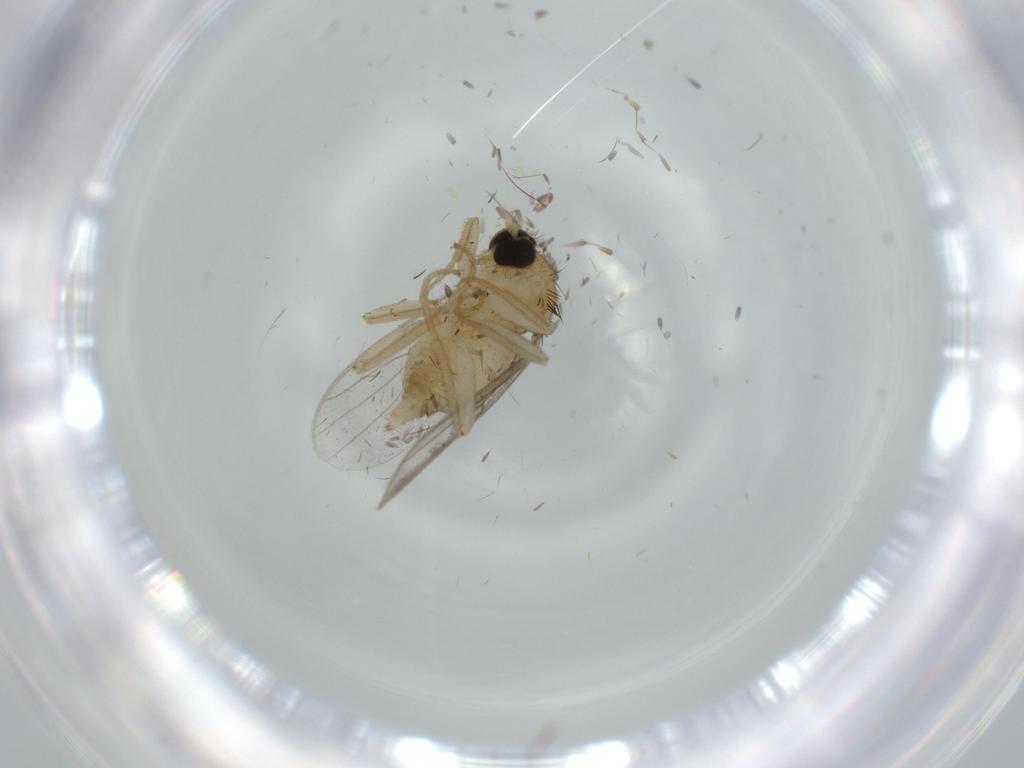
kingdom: Animalia
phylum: Arthropoda
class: Insecta
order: Diptera
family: Hybotidae
